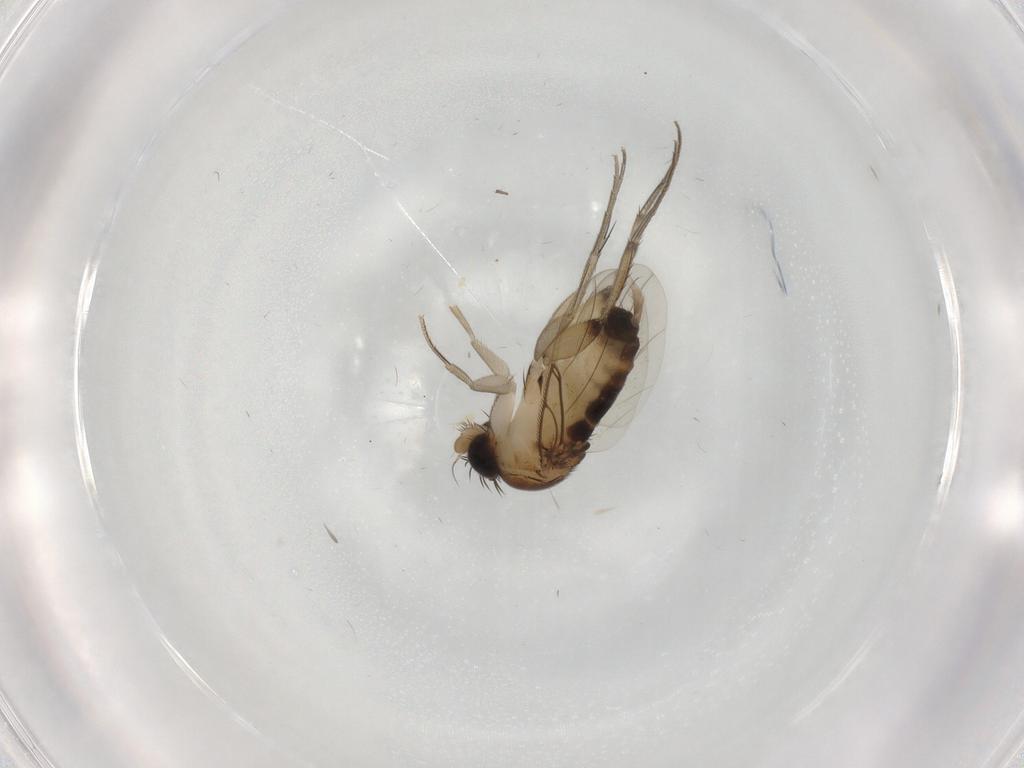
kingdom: Animalia
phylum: Arthropoda
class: Insecta
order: Diptera
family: Phoridae
